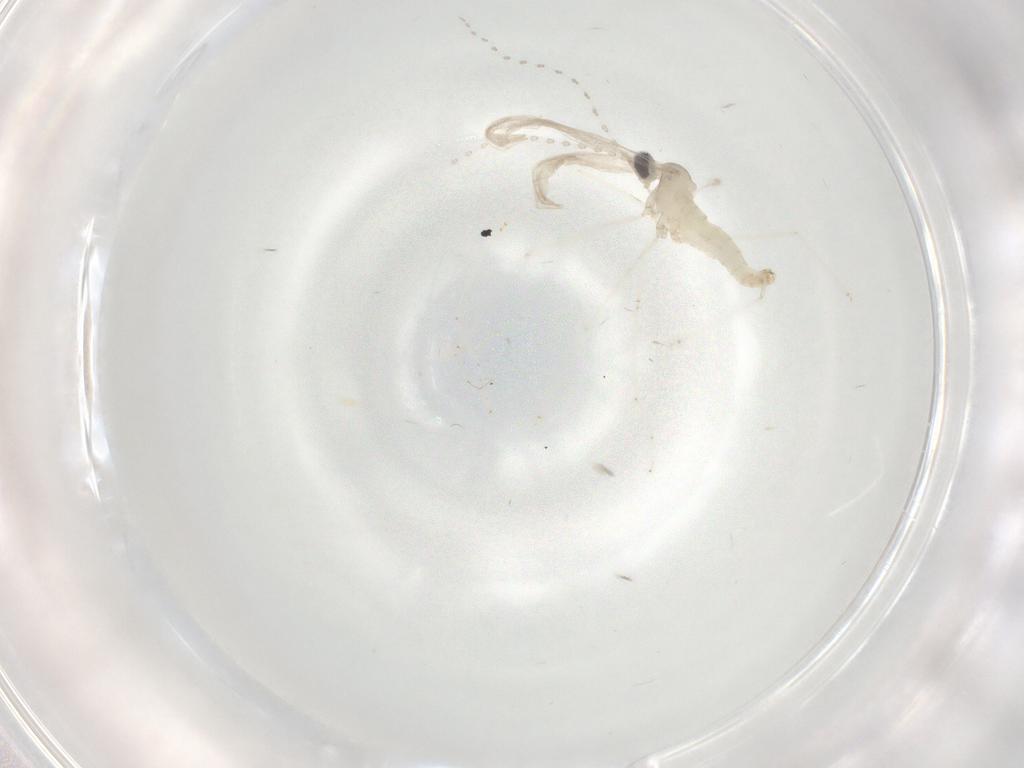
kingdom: Animalia
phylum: Arthropoda
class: Insecta
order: Diptera
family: Cecidomyiidae
